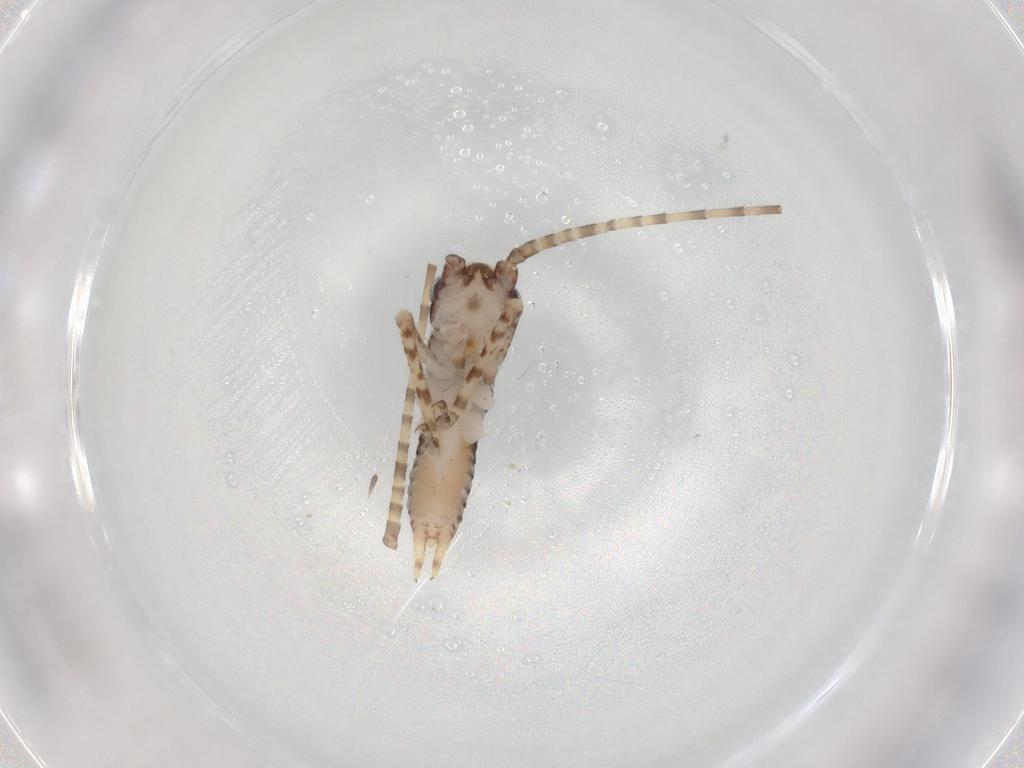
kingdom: Animalia
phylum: Arthropoda
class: Insecta
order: Orthoptera
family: Gryllidae
